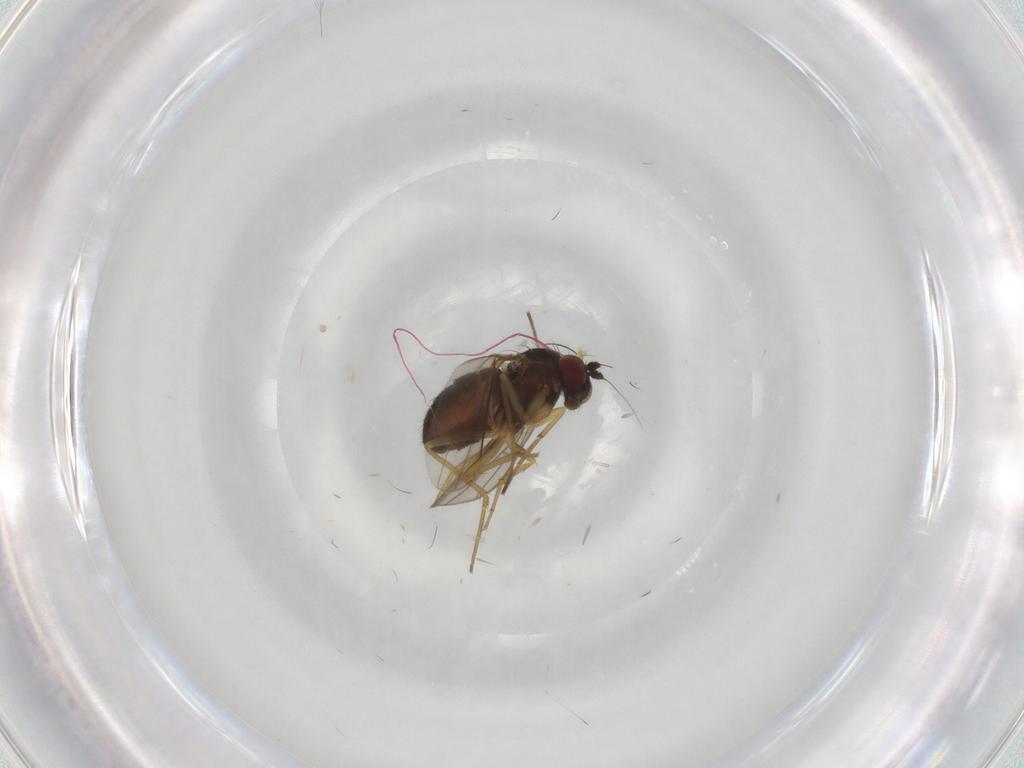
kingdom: Animalia
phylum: Arthropoda
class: Insecta
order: Diptera
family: Dolichopodidae
